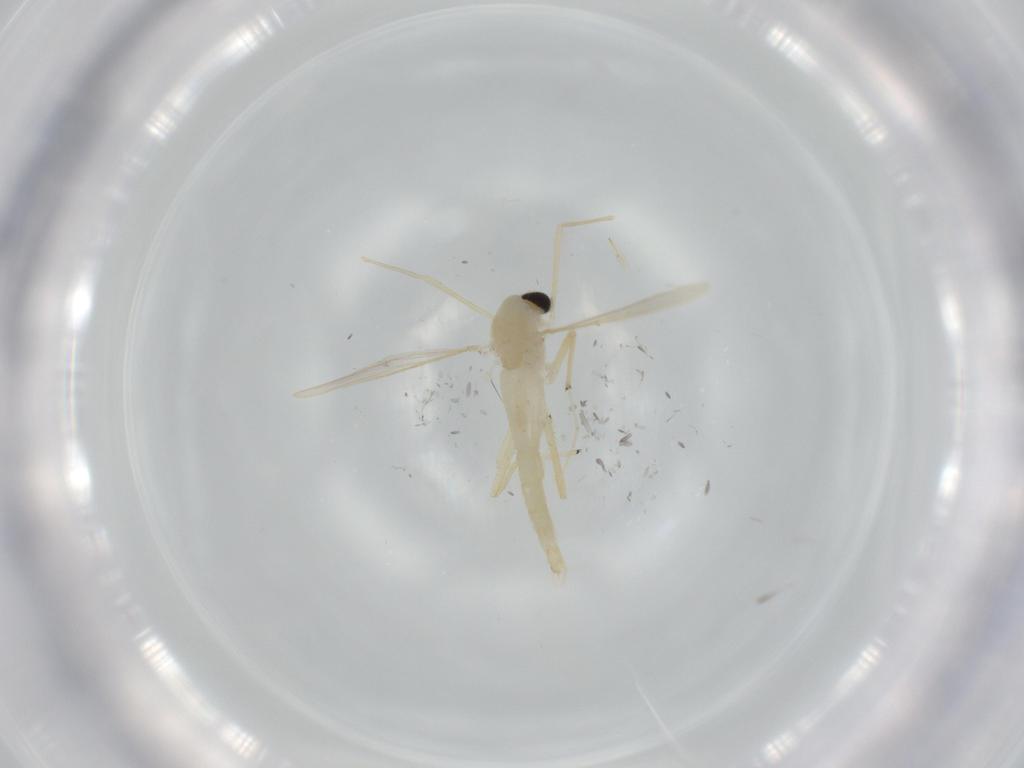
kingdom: Animalia
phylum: Arthropoda
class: Insecta
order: Diptera
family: Chironomidae
